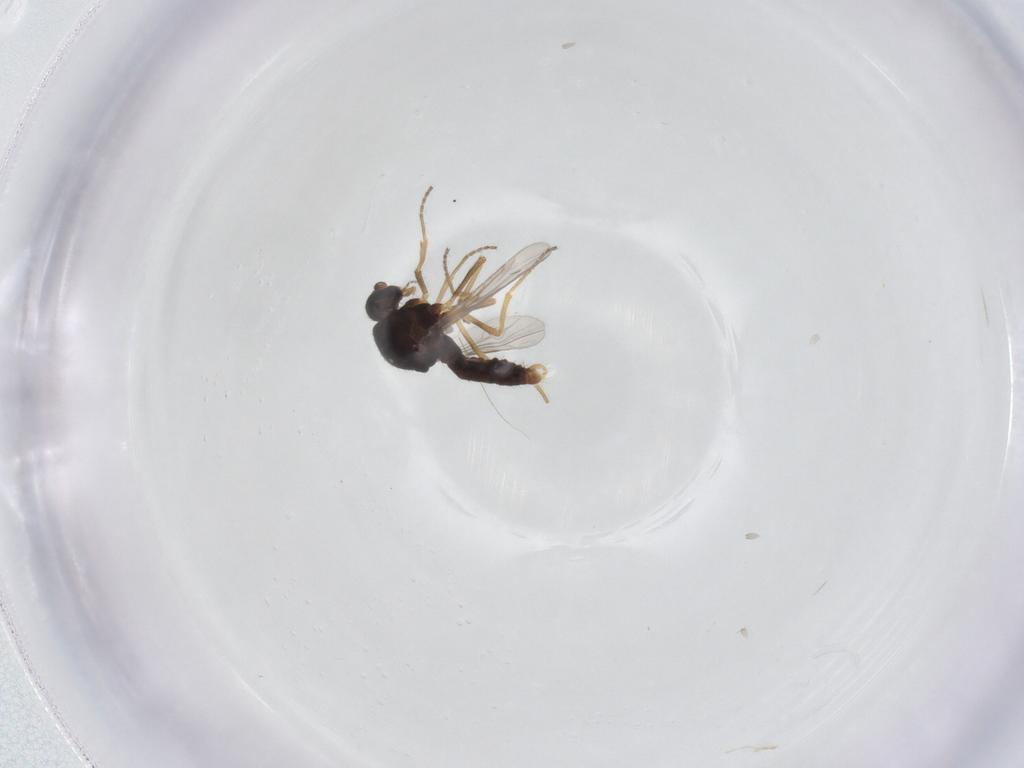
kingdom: Animalia
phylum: Arthropoda
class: Insecta
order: Diptera
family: Ceratopogonidae
